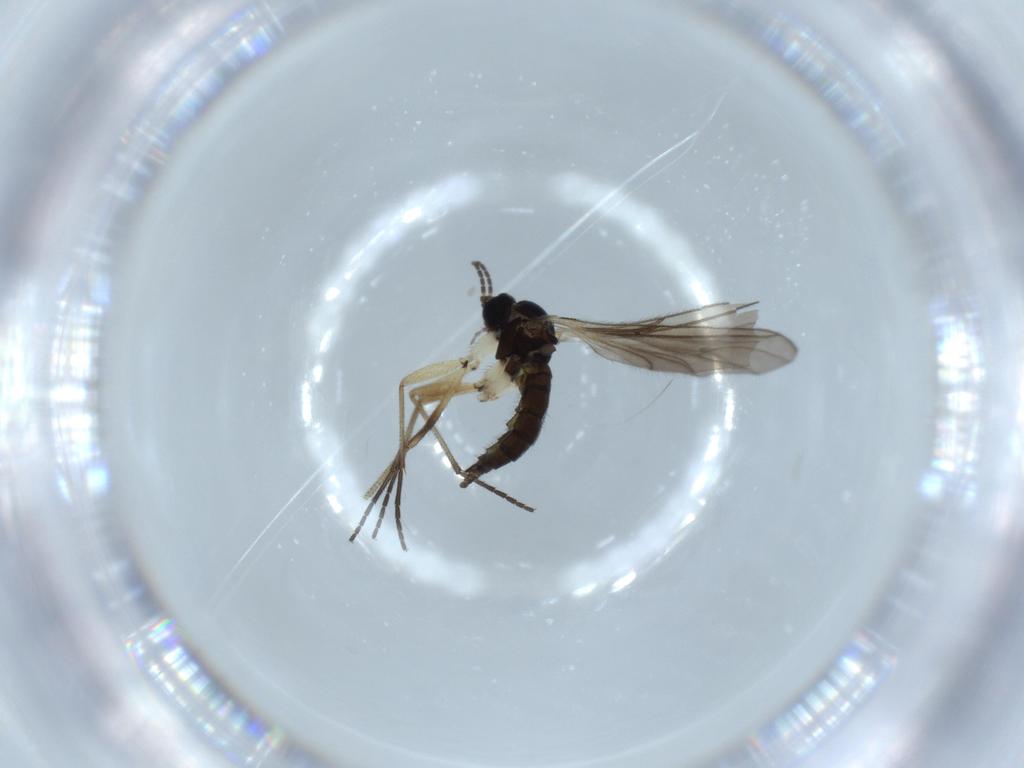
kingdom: Animalia
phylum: Arthropoda
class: Insecta
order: Diptera
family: Sciaridae
